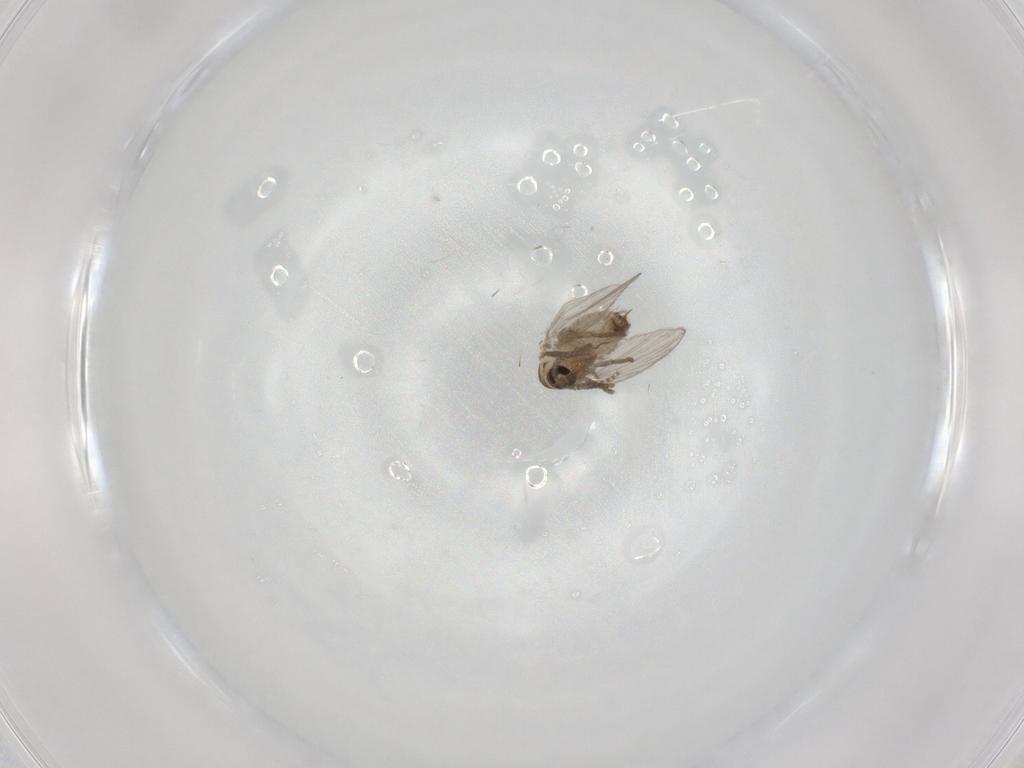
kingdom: Animalia
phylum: Arthropoda
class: Insecta
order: Diptera
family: Psychodidae
